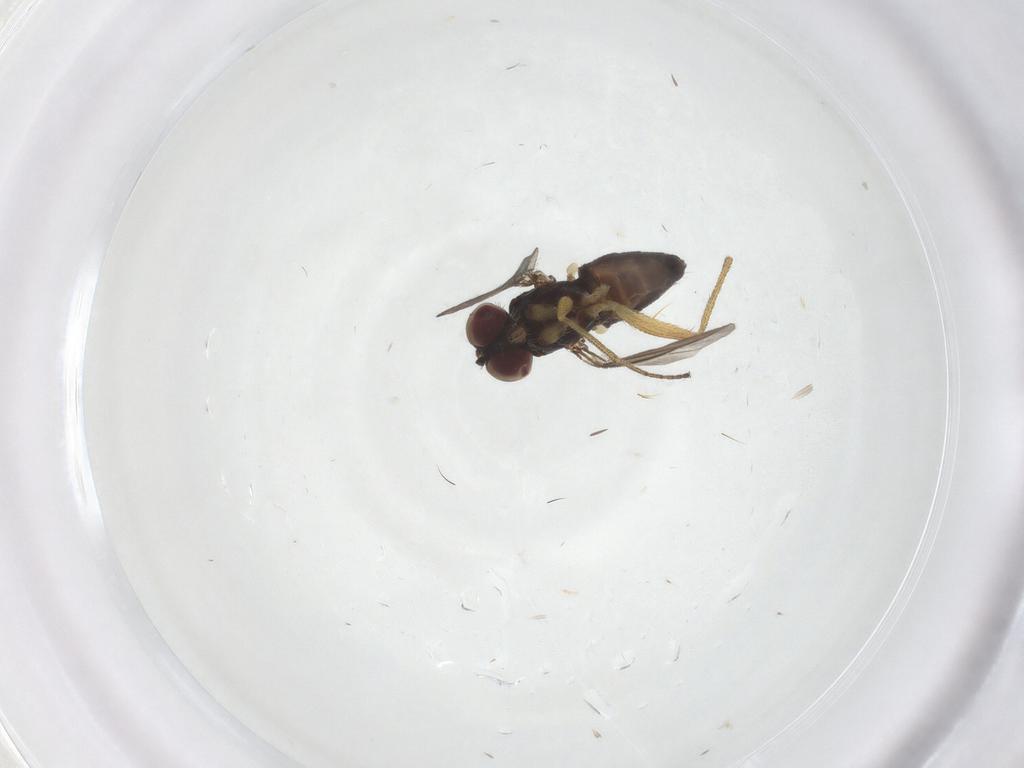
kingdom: Animalia
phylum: Arthropoda
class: Insecta
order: Diptera
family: Dolichopodidae
